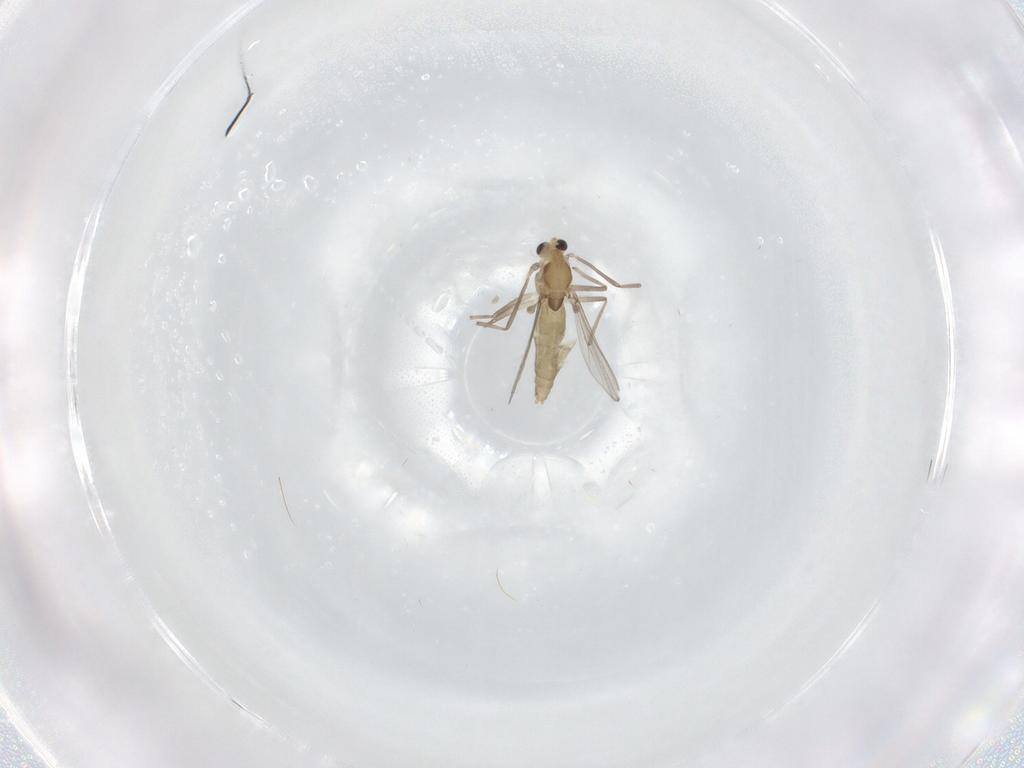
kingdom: Animalia
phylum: Arthropoda
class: Insecta
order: Diptera
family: Chironomidae
